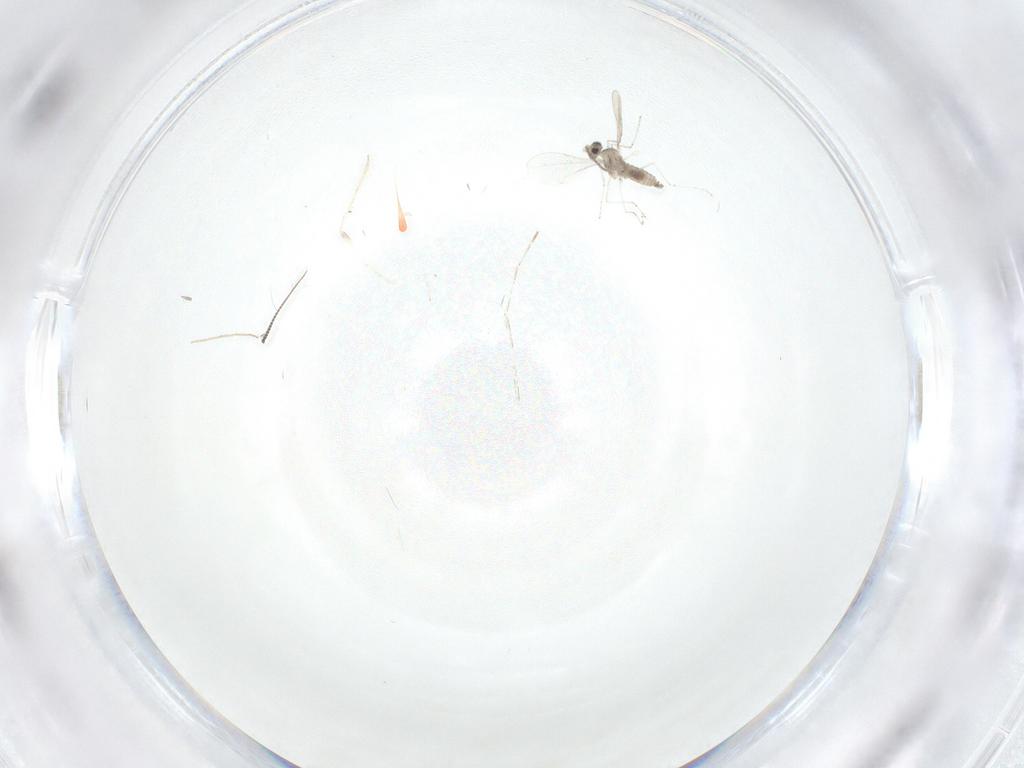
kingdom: Animalia
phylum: Arthropoda
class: Insecta
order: Diptera
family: Cecidomyiidae
